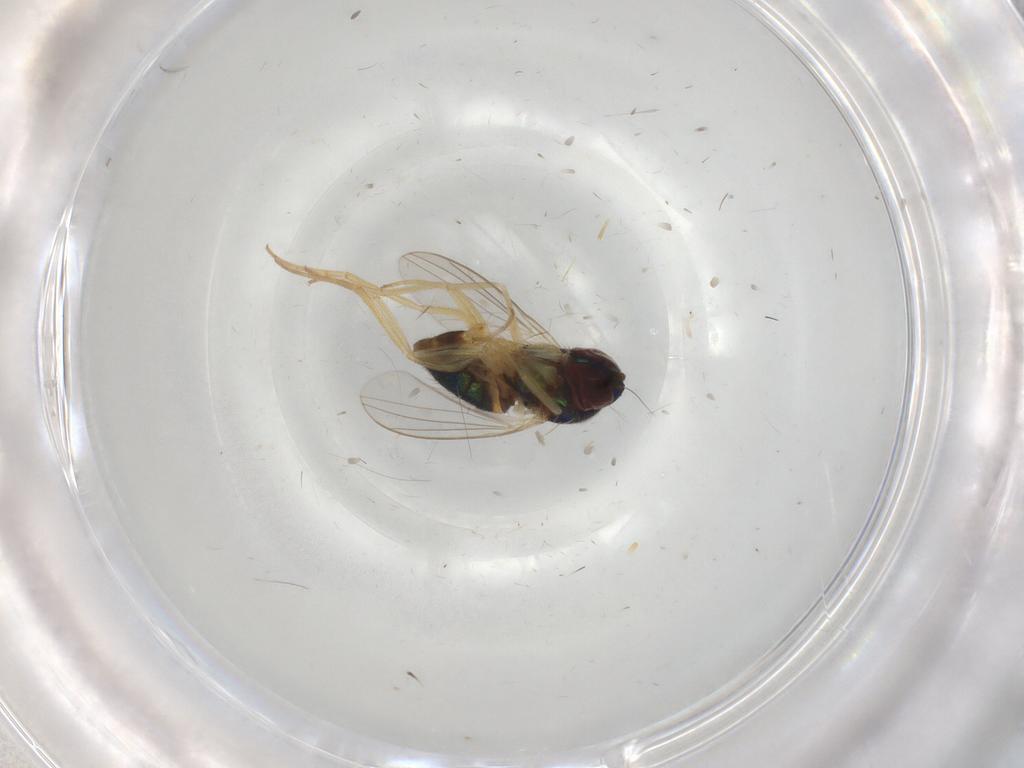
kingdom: Animalia
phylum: Arthropoda
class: Insecta
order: Diptera
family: Dolichopodidae
